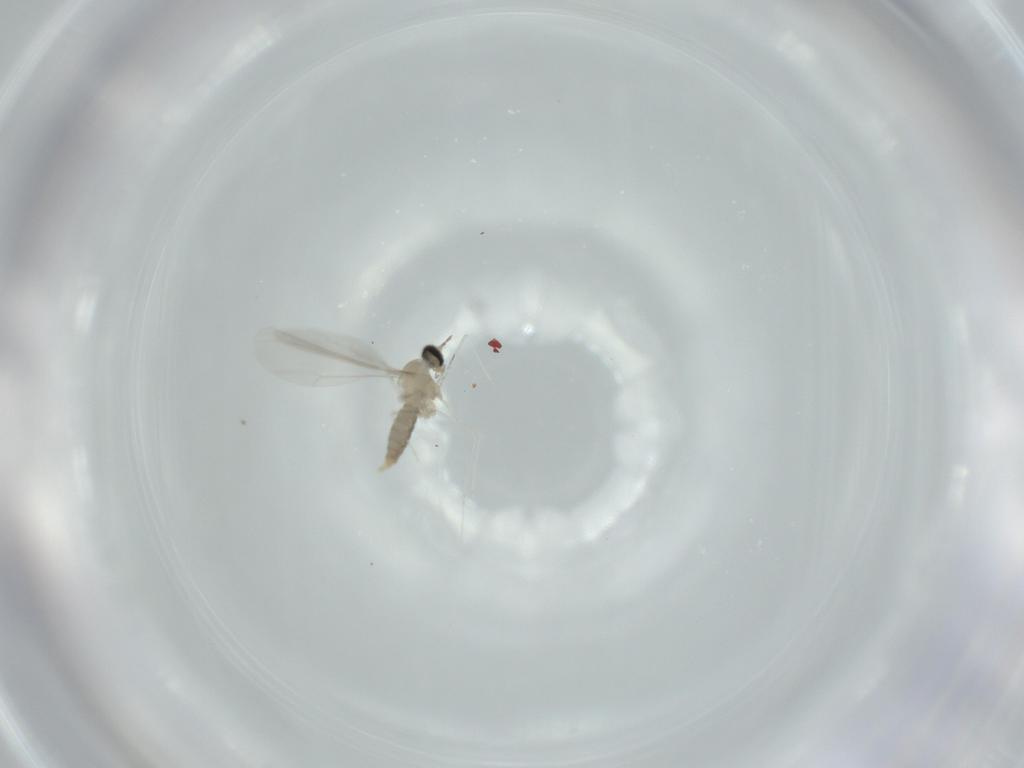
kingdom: Animalia
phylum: Arthropoda
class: Insecta
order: Diptera
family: Cecidomyiidae
